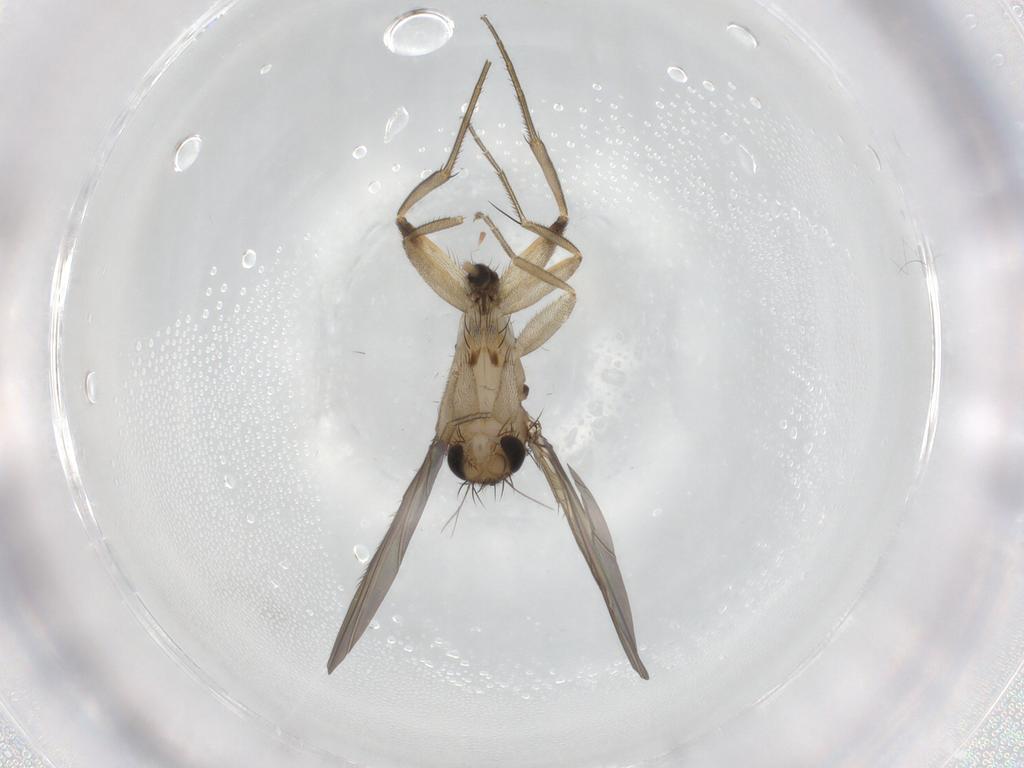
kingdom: Animalia
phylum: Arthropoda
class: Insecta
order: Diptera
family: Phoridae
